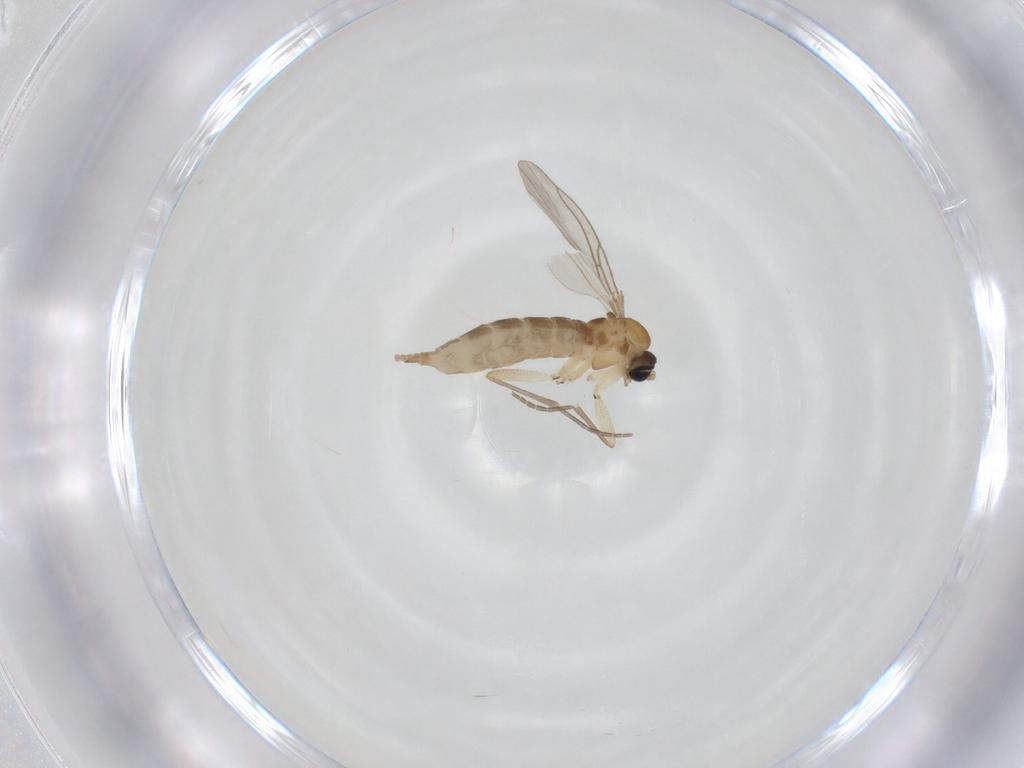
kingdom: Animalia
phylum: Arthropoda
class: Insecta
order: Diptera
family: Sciaridae
